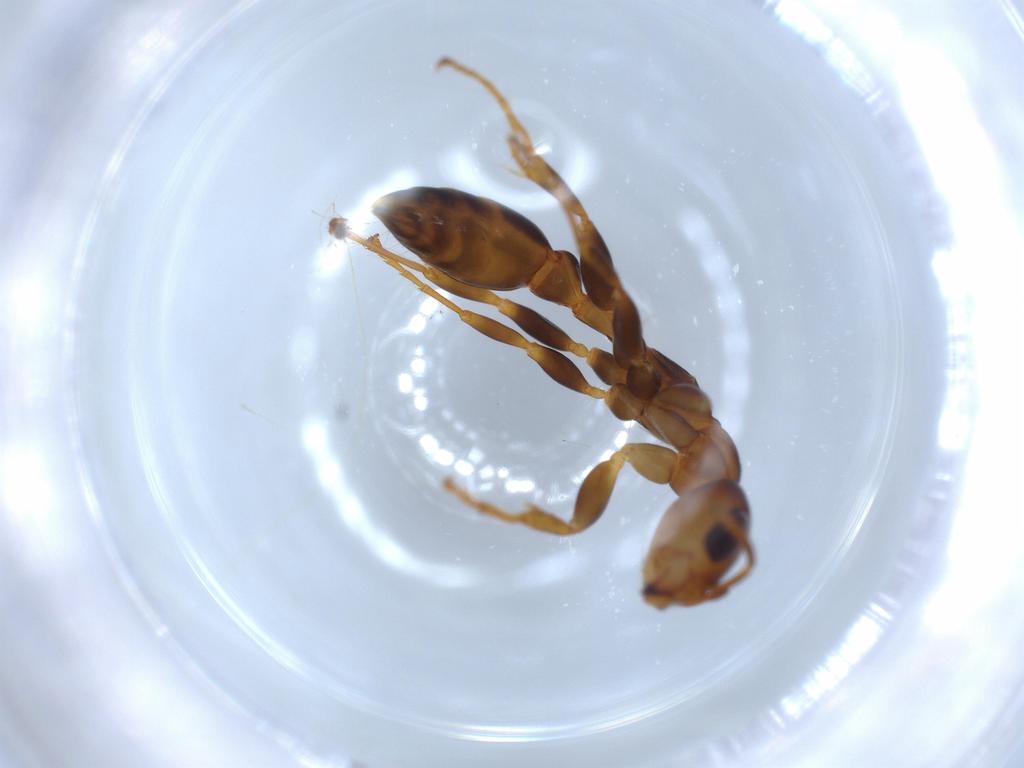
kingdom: Animalia
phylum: Arthropoda
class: Insecta
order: Hymenoptera
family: Formicidae
